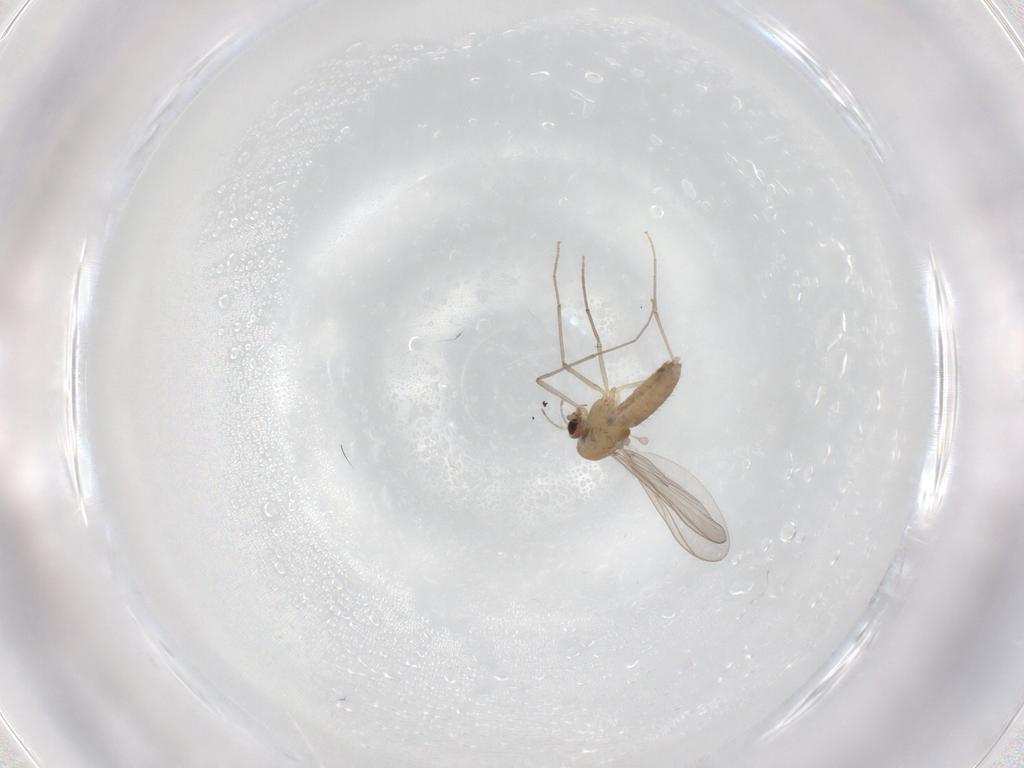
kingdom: Animalia
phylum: Arthropoda
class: Insecta
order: Diptera
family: Chironomidae
